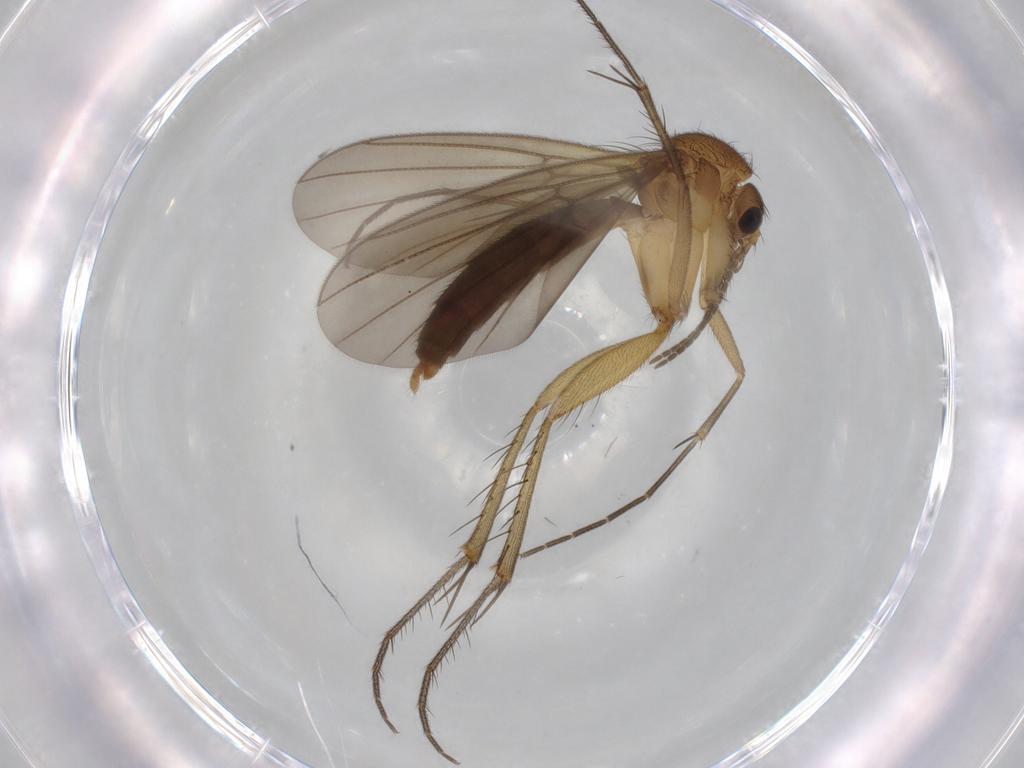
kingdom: Animalia
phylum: Arthropoda
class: Insecta
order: Diptera
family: Mycetophilidae
